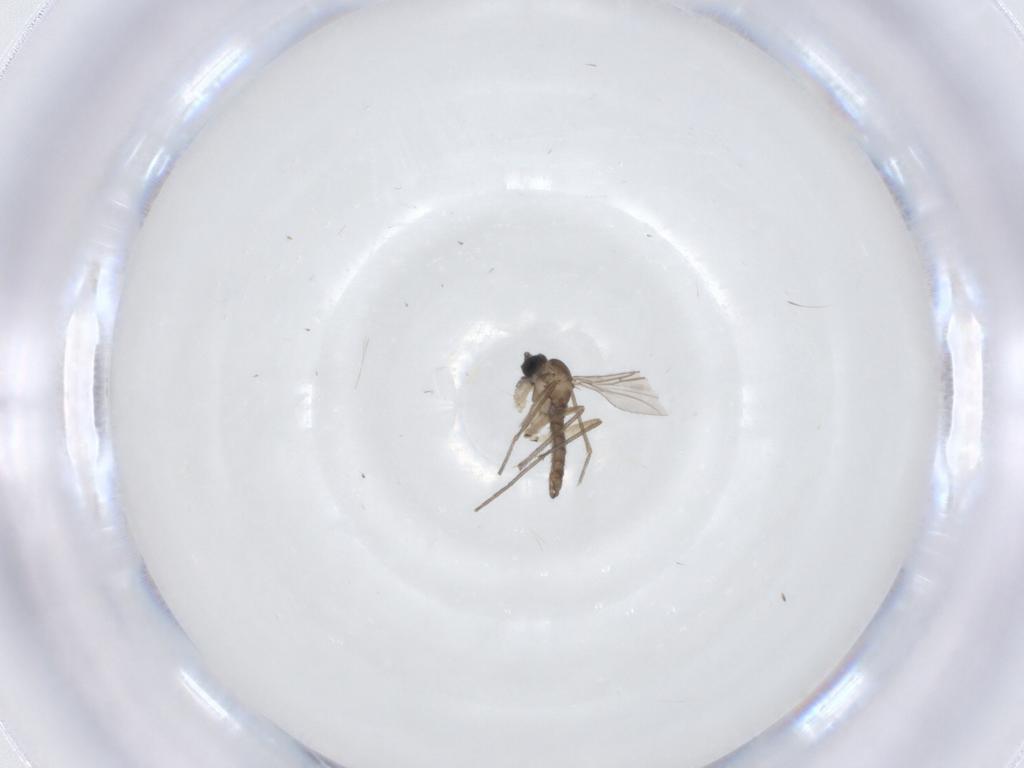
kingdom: Animalia
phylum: Arthropoda
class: Insecta
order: Diptera
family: Sciaridae
